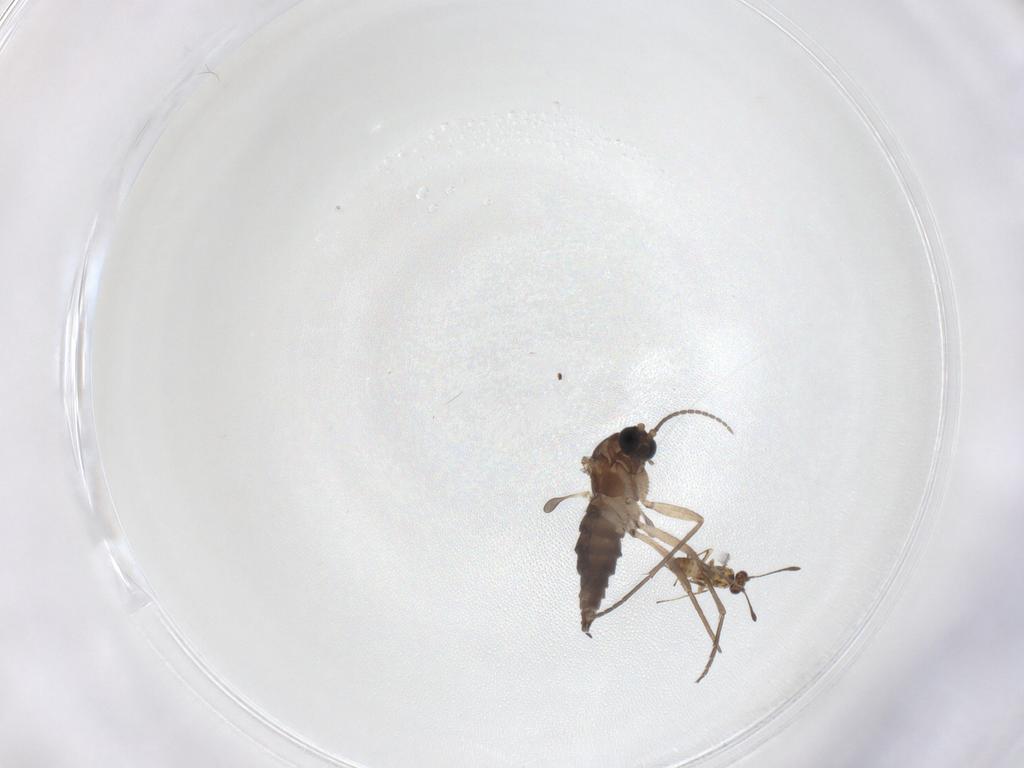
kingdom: Animalia
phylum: Arthropoda
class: Insecta
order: Diptera
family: Sciaridae
